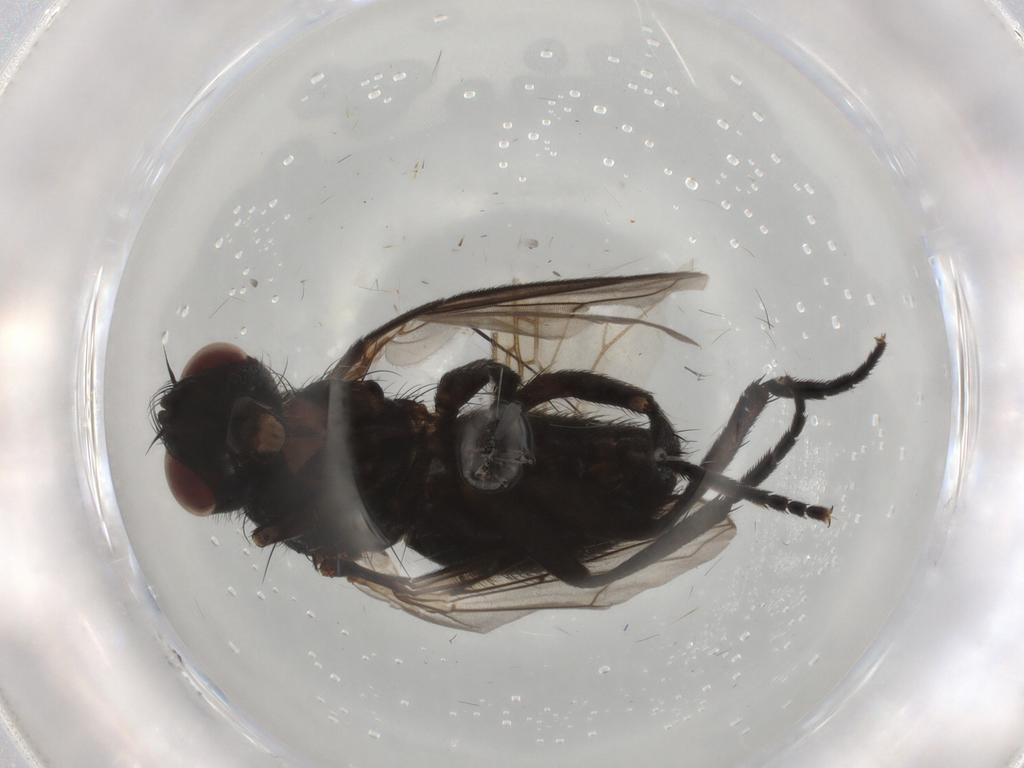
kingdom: Animalia
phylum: Arthropoda
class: Insecta
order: Diptera
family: Mycetophilidae
